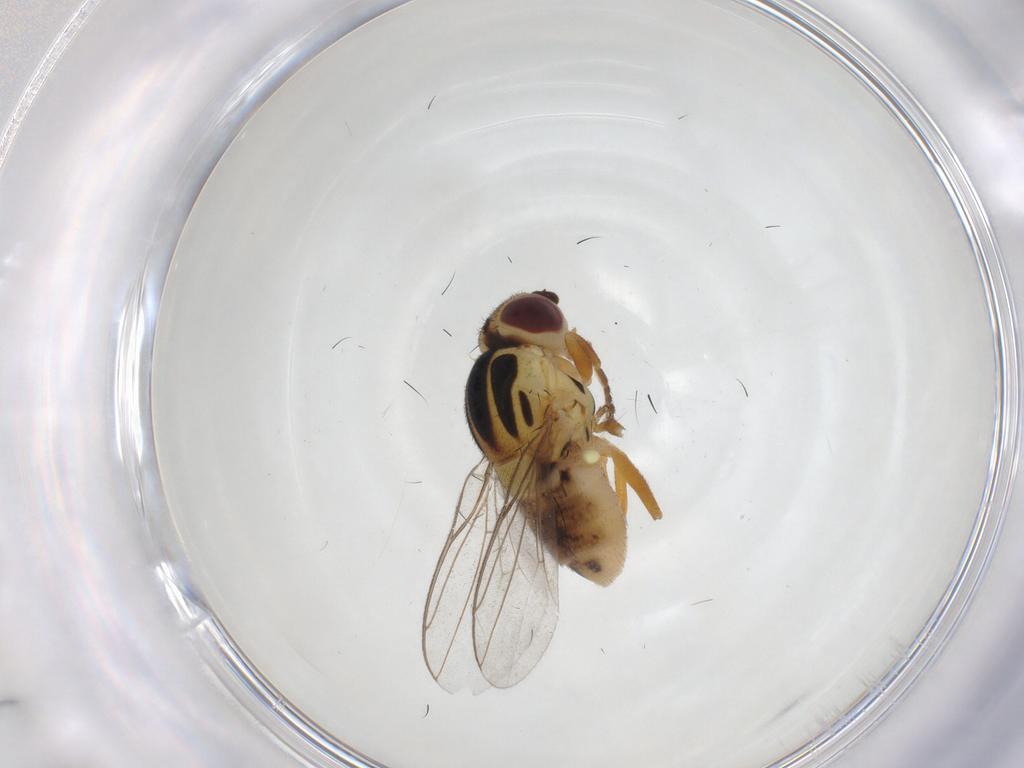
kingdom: Animalia
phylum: Arthropoda
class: Insecta
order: Diptera
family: Chloropidae
